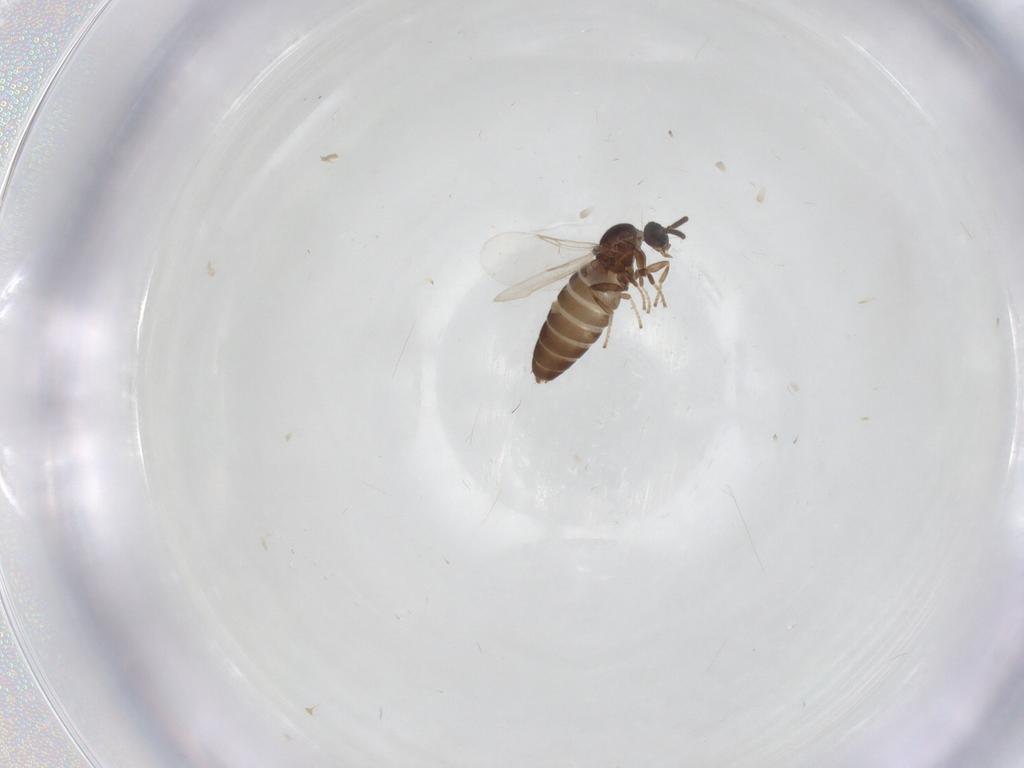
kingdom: Animalia
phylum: Arthropoda
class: Insecta
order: Diptera
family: Scatopsidae
